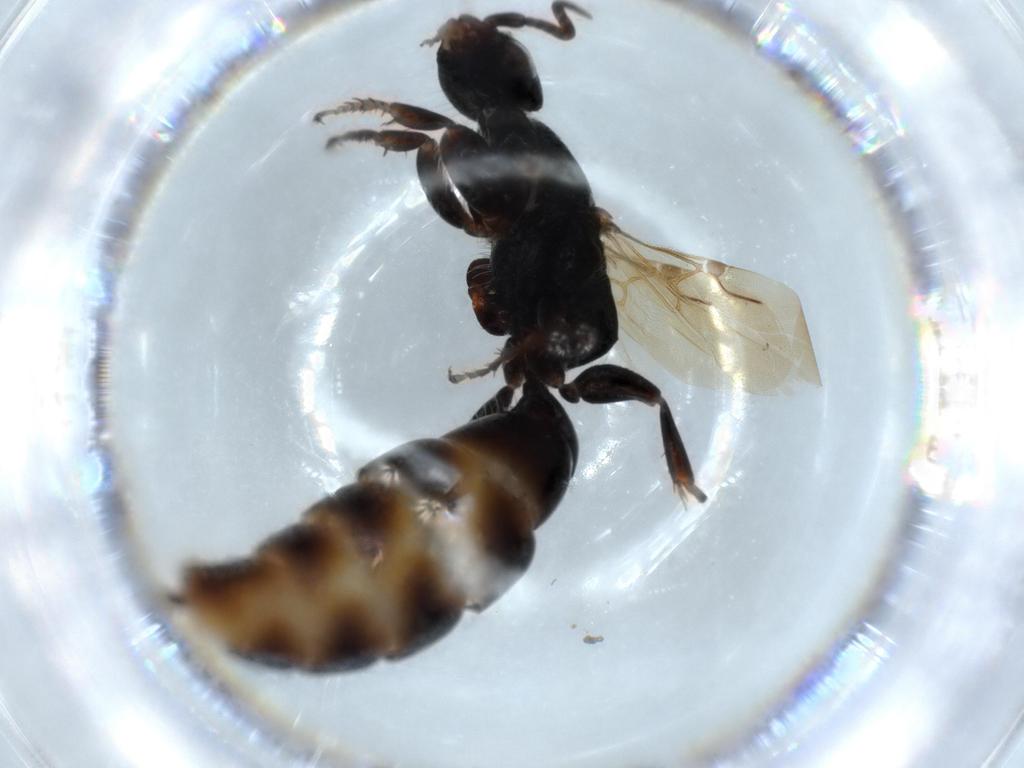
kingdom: Animalia
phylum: Arthropoda
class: Insecta
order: Hymenoptera
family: Bethylidae
